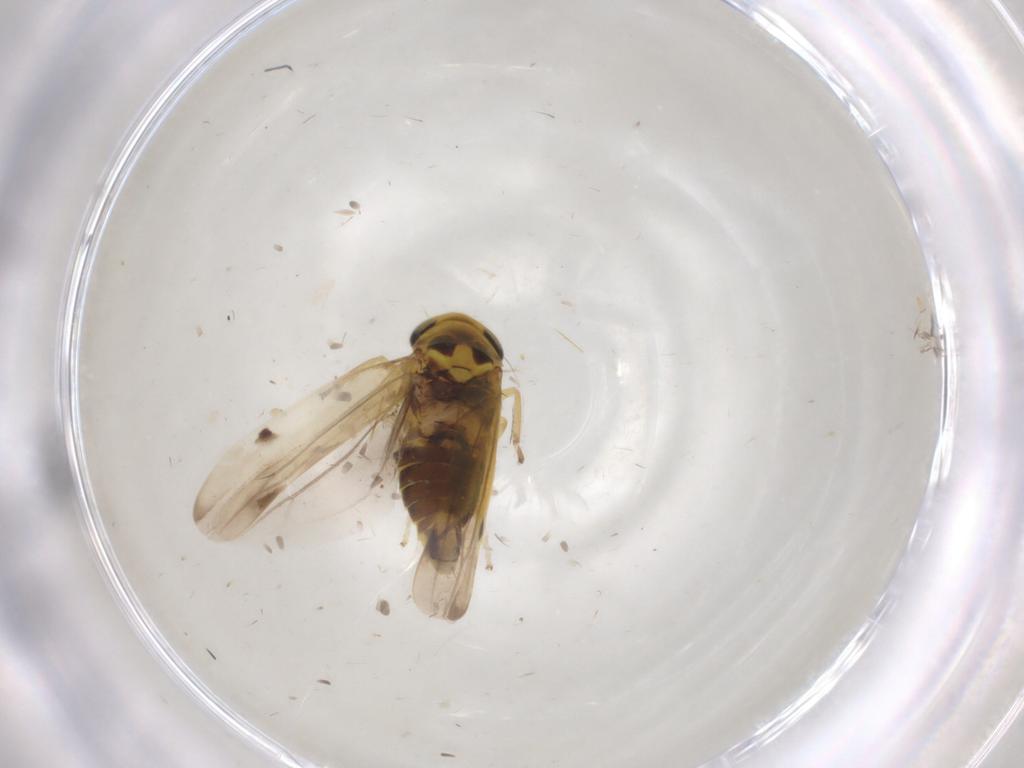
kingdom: Animalia
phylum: Arthropoda
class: Insecta
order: Hemiptera
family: Cicadellidae
